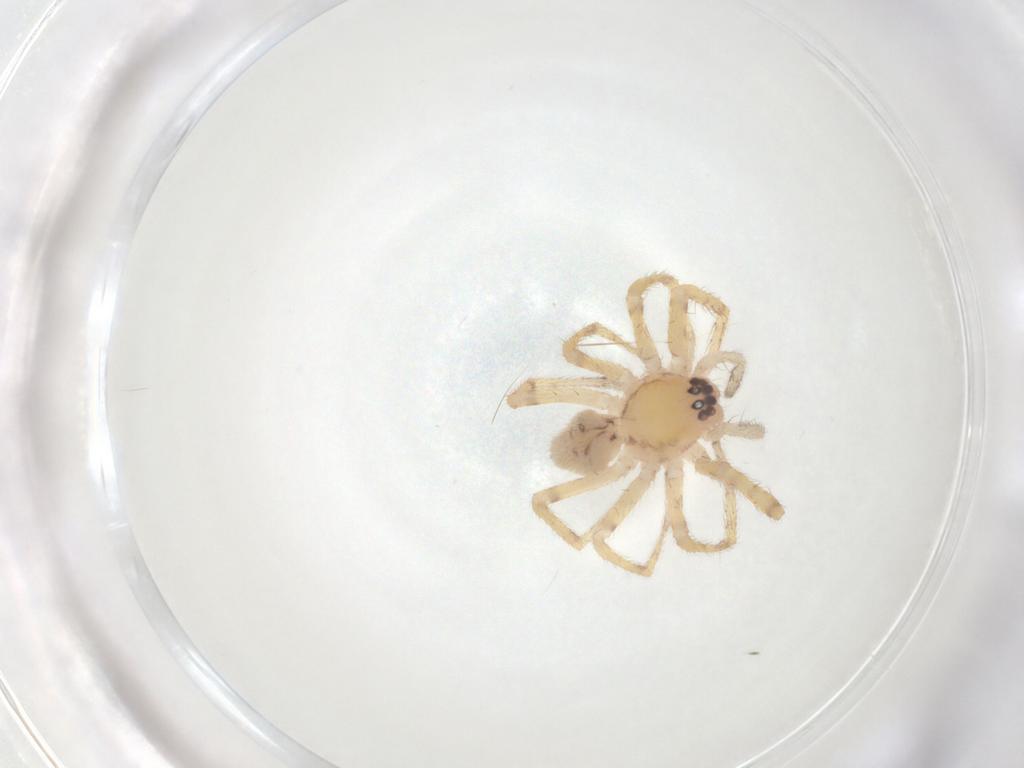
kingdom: Animalia
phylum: Arthropoda
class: Arachnida
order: Araneae
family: Corinnidae
